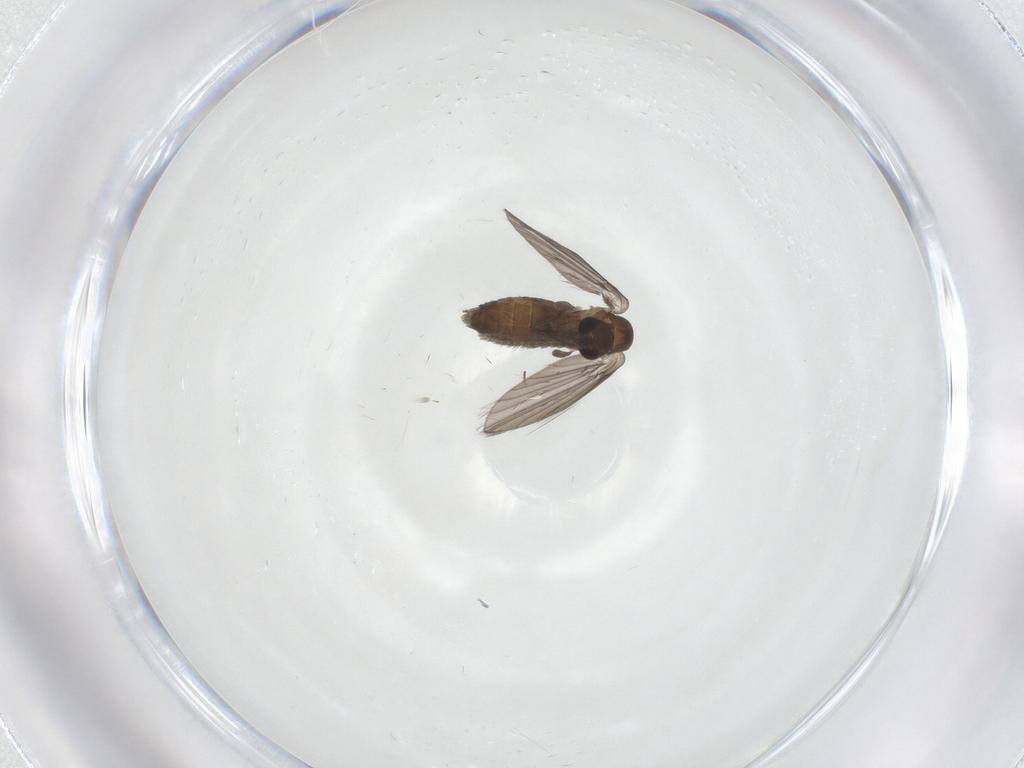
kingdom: Animalia
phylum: Arthropoda
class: Insecta
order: Diptera
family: Psychodidae
